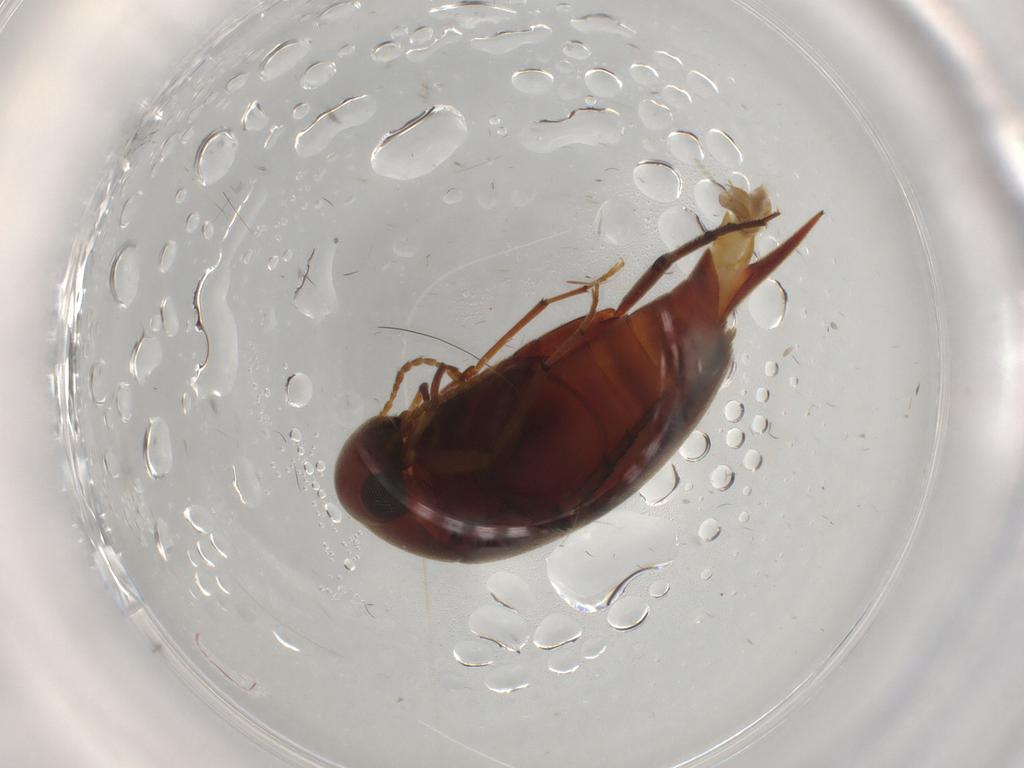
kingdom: Animalia
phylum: Arthropoda
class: Insecta
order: Coleoptera
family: Mordellidae
